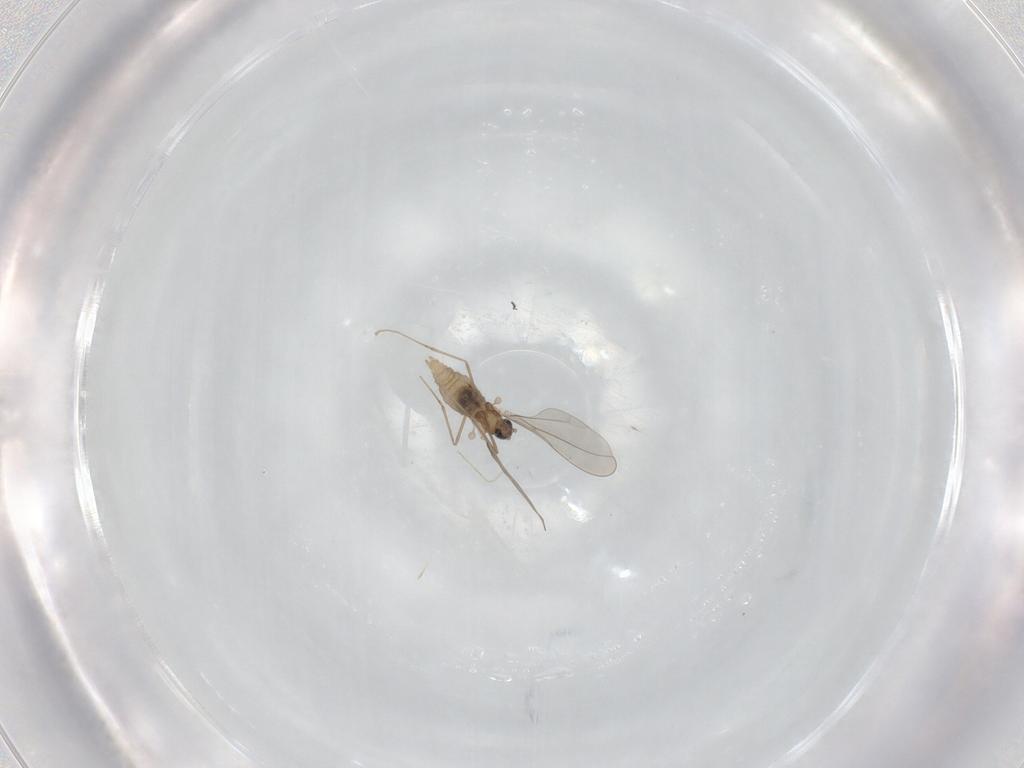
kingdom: Animalia
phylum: Arthropoda
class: Insecta
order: Diptera
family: Cecidomyiidae
